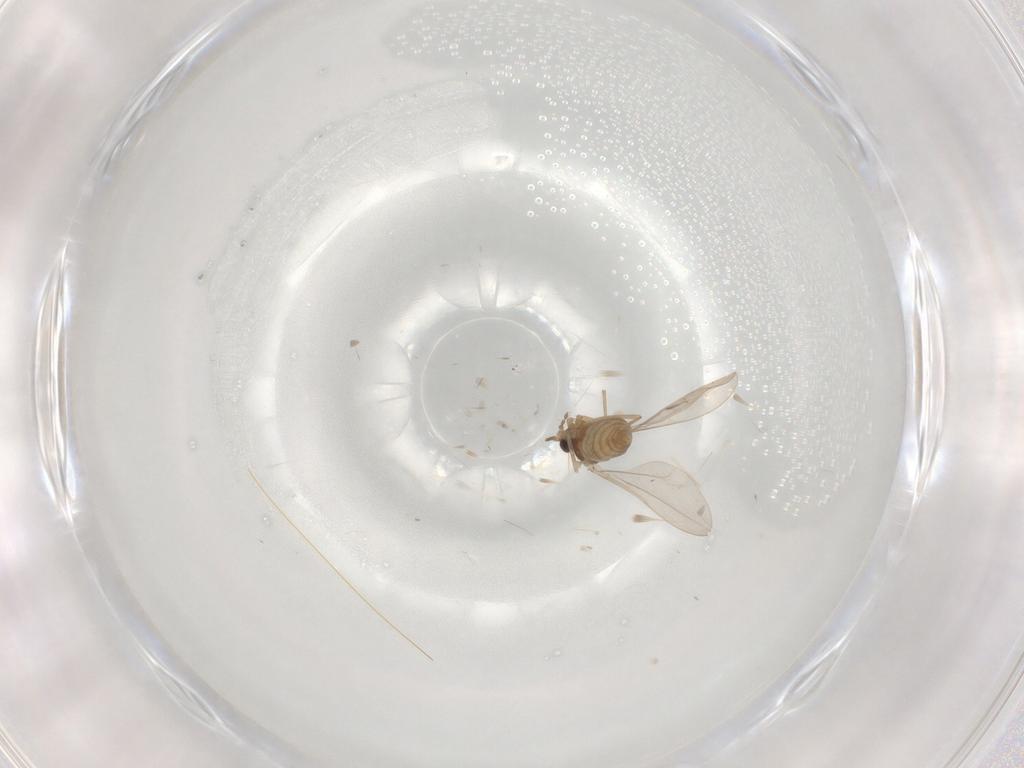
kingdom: Animalia
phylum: Arthropoda
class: Insecta
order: Diptera
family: Cecidomyiidae
